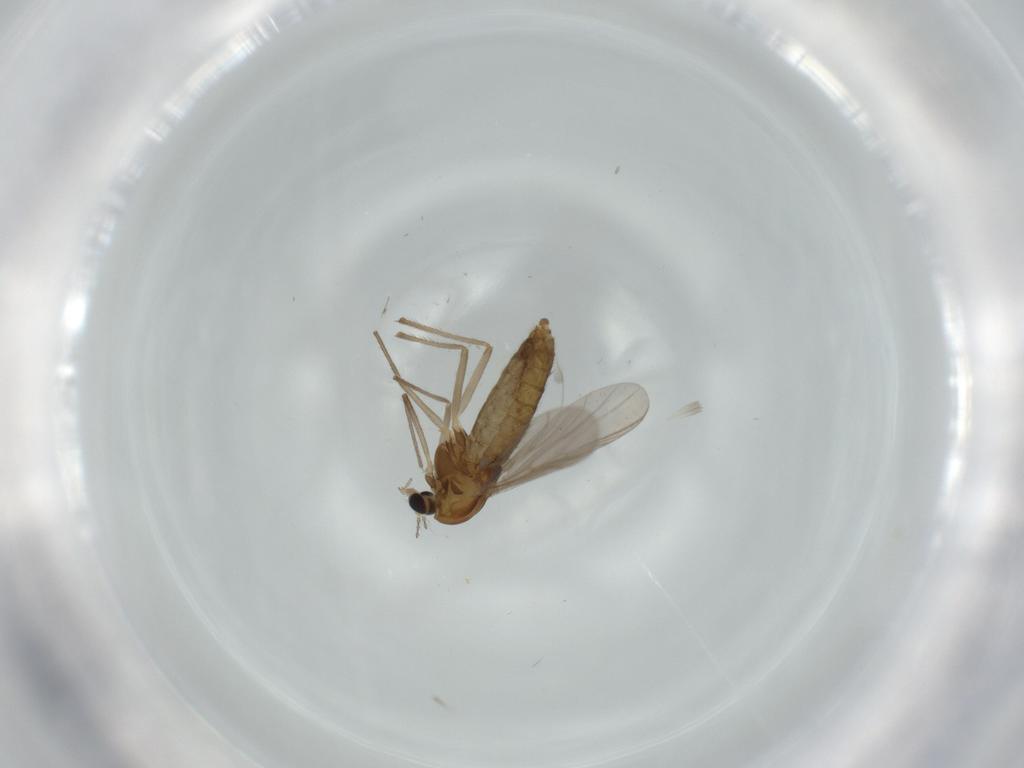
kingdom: Animalia
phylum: Arthropoda
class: Insecta
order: Diptera
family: Chironomidae
